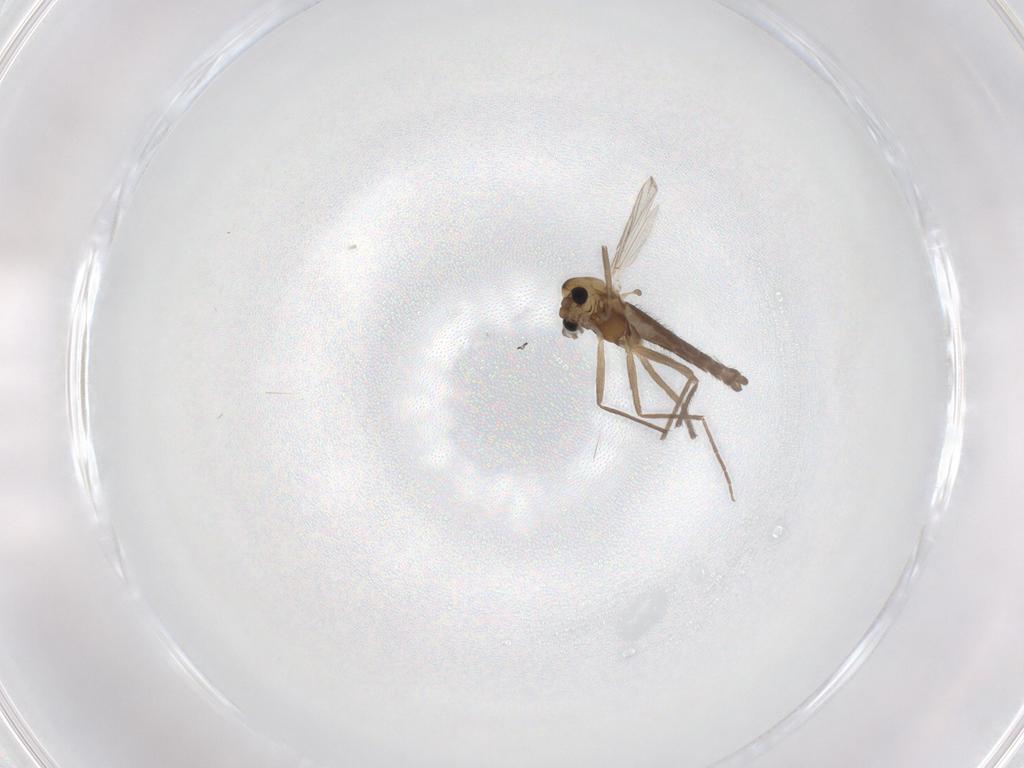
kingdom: Animalia
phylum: Arthropoda
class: Insecta
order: Diptera
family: Chironomidae
